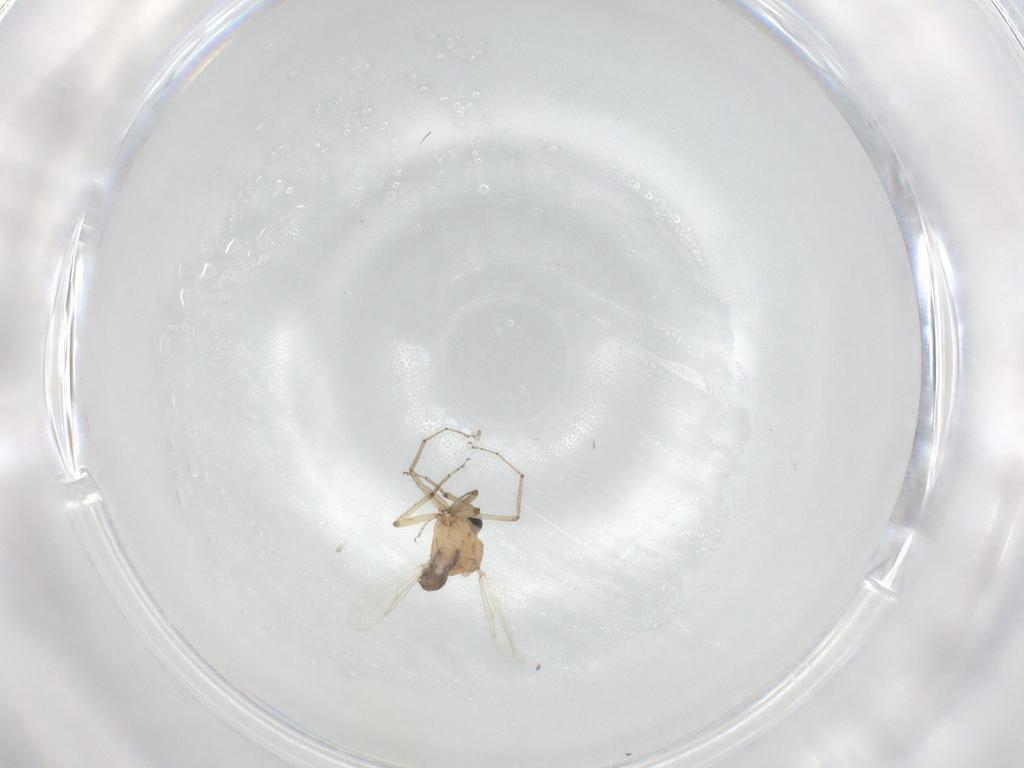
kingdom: Animalia
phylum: Arthropoda
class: Insecta
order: Diptera
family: Ceratopogonidae
